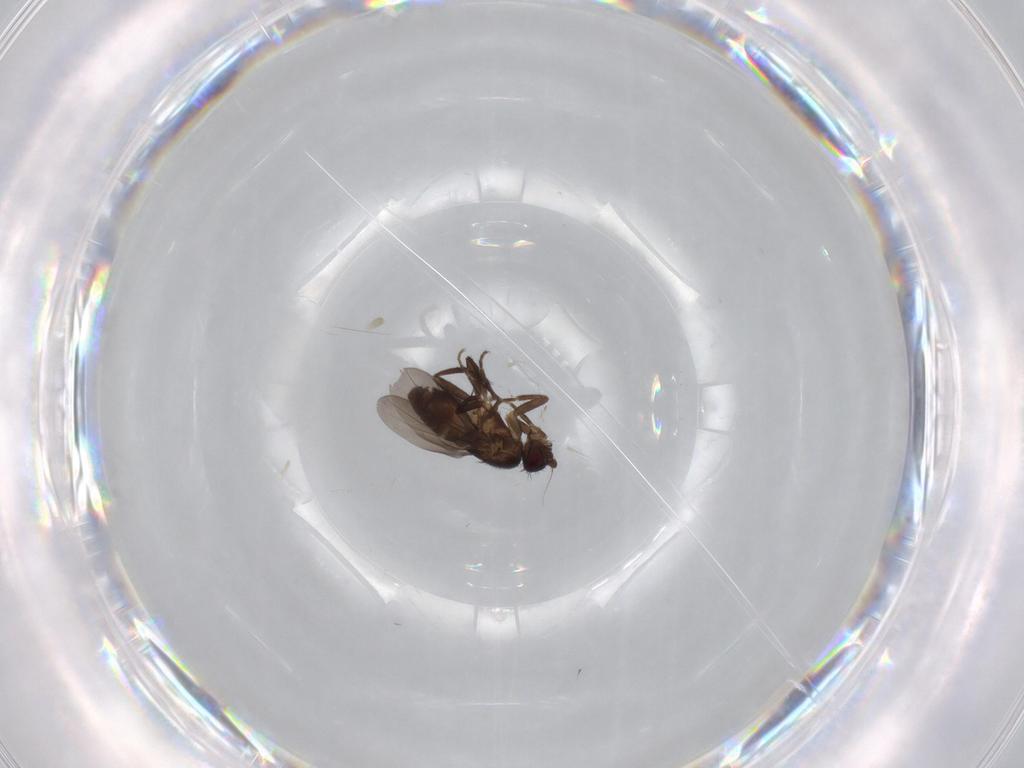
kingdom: Animalia
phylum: Arthropoda
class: Insecta
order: Diptera
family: Sphaeroceridae
